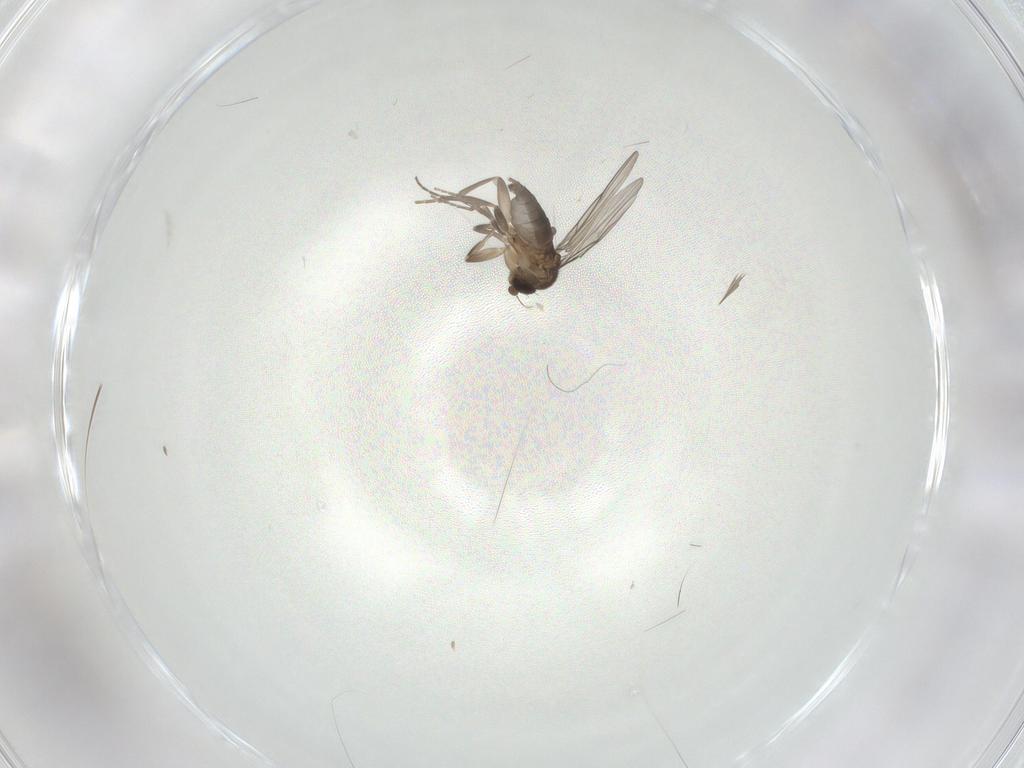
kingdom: Animalia
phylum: Arthropoda
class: Insecta
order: Diptera
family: Phoridae
